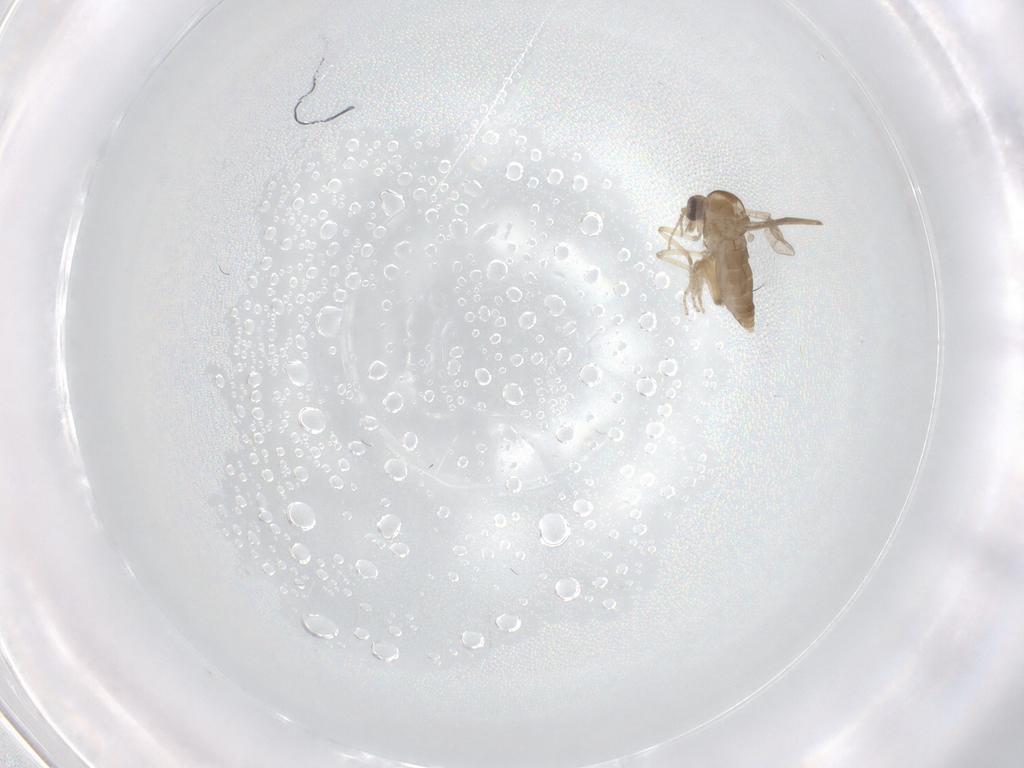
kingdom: Animalia
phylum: Arthropoda
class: Insecta
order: Diptera
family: Ceratopogonidae
